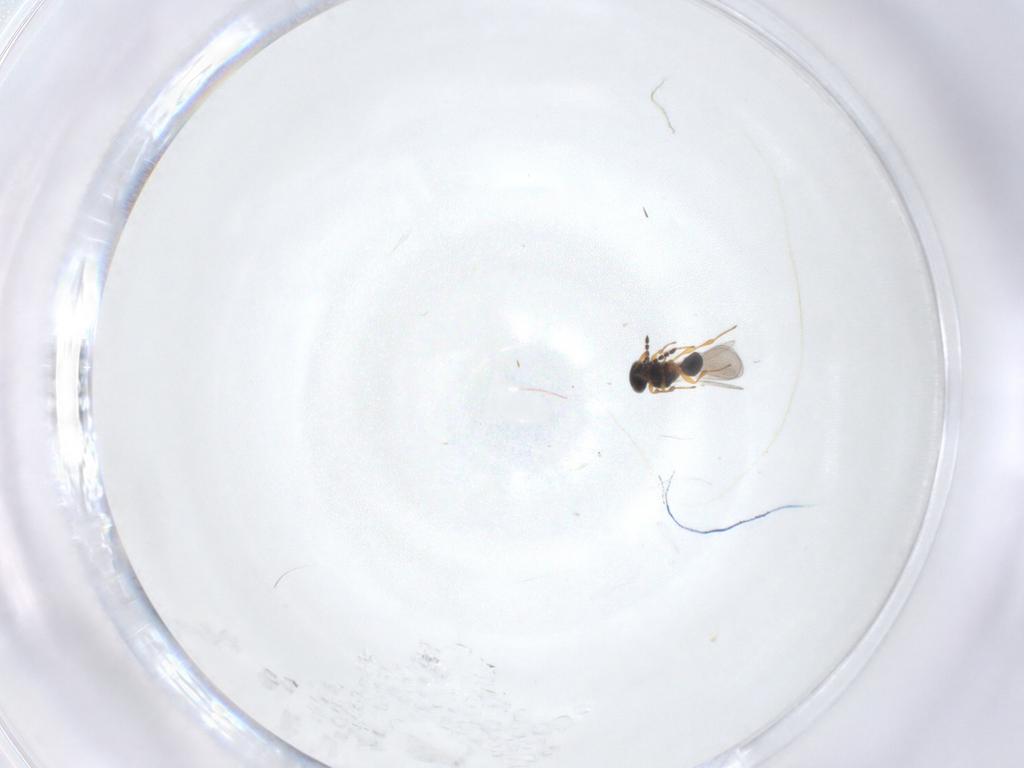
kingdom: Animalia
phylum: Arthropoda
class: Insecta
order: Hymenoptera
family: Platygastridae
